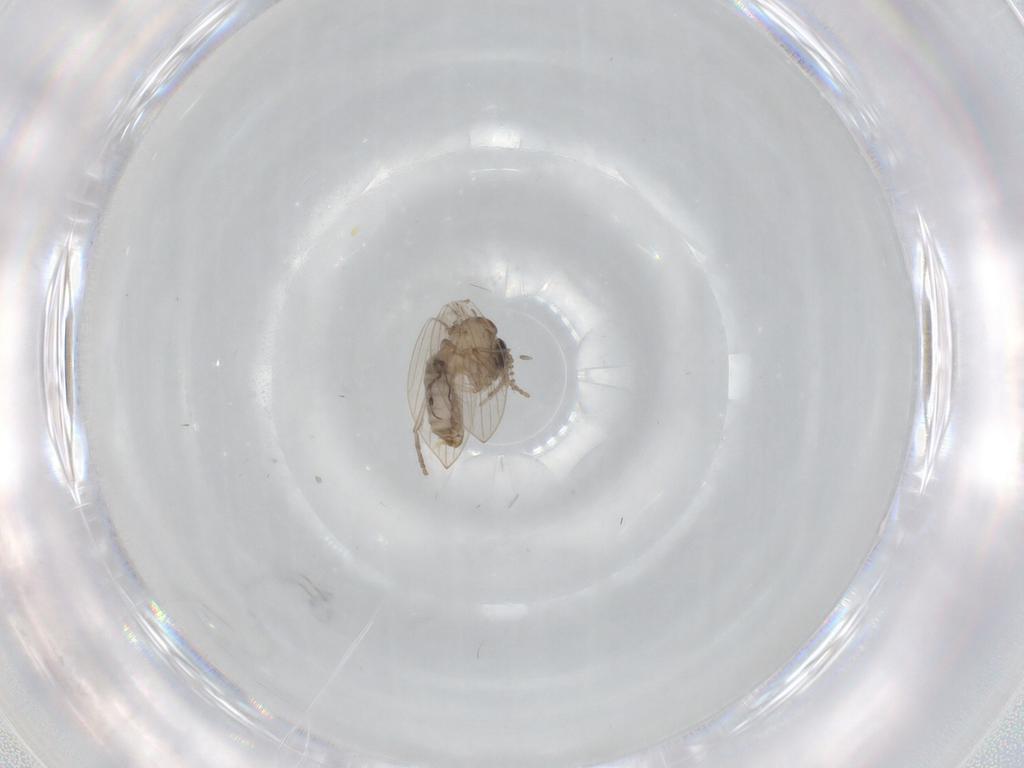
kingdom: Animalia
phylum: Arthropoda
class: Insecta
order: Diptera
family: Psychodidae
